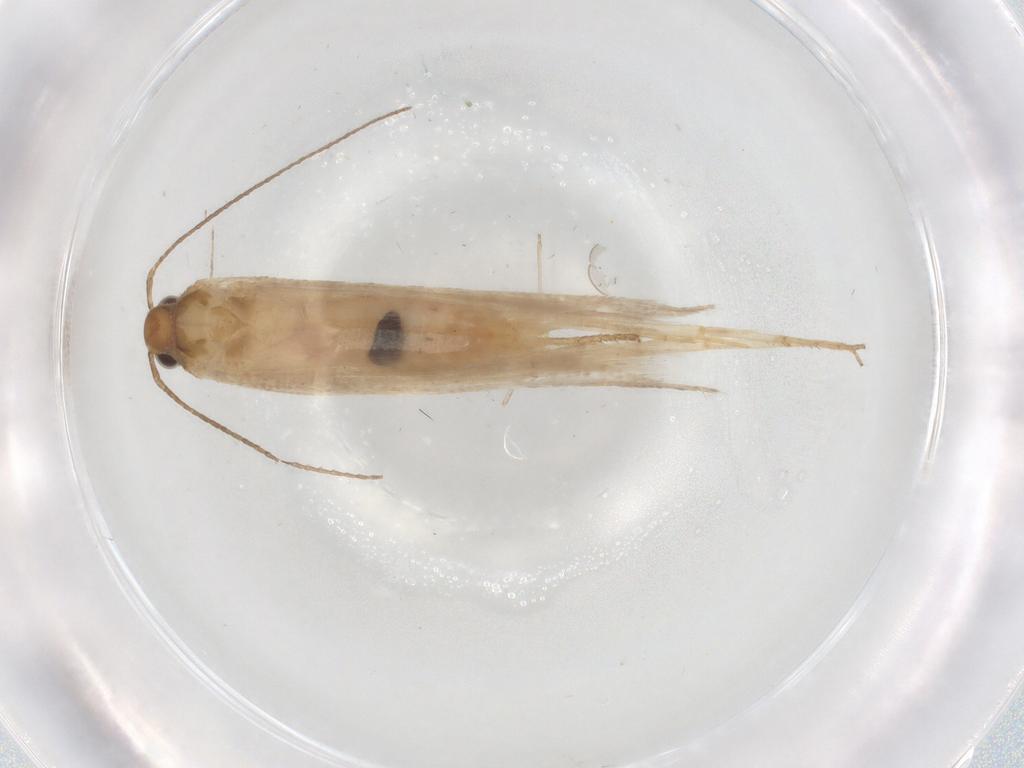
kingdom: Animalia
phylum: Arthropoda
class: Insecta
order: Lepidoptera
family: Gelechiidae
